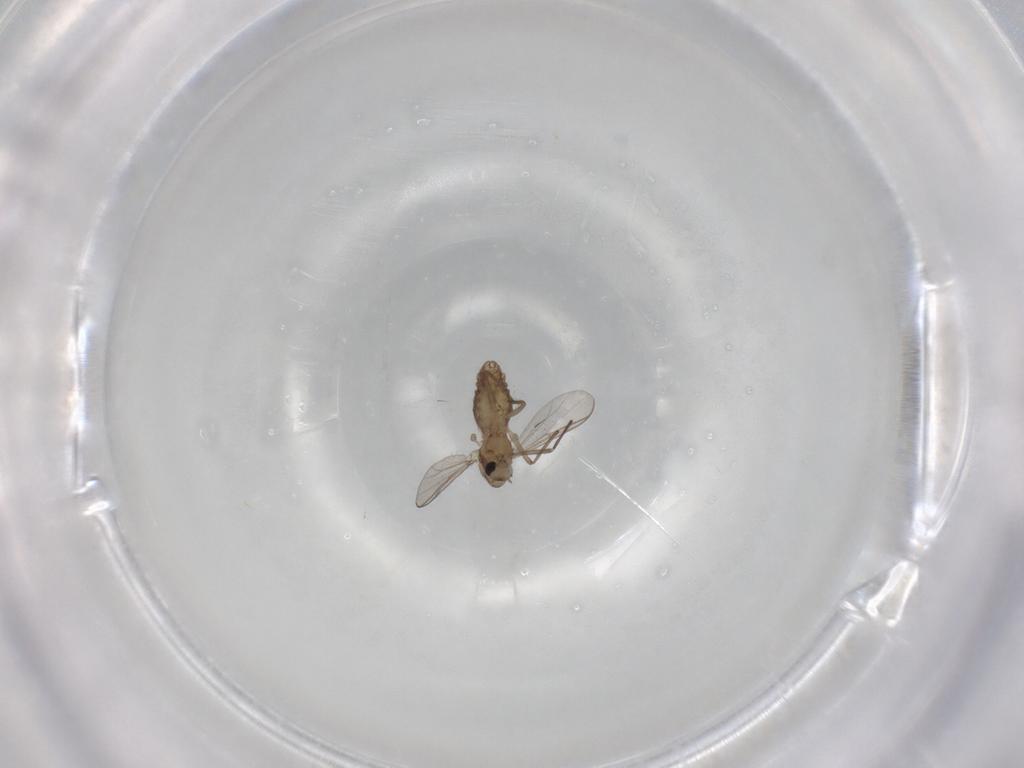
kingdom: Animalia
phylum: Arthropoda
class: Insecta
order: Diptera
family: Chironomidae
